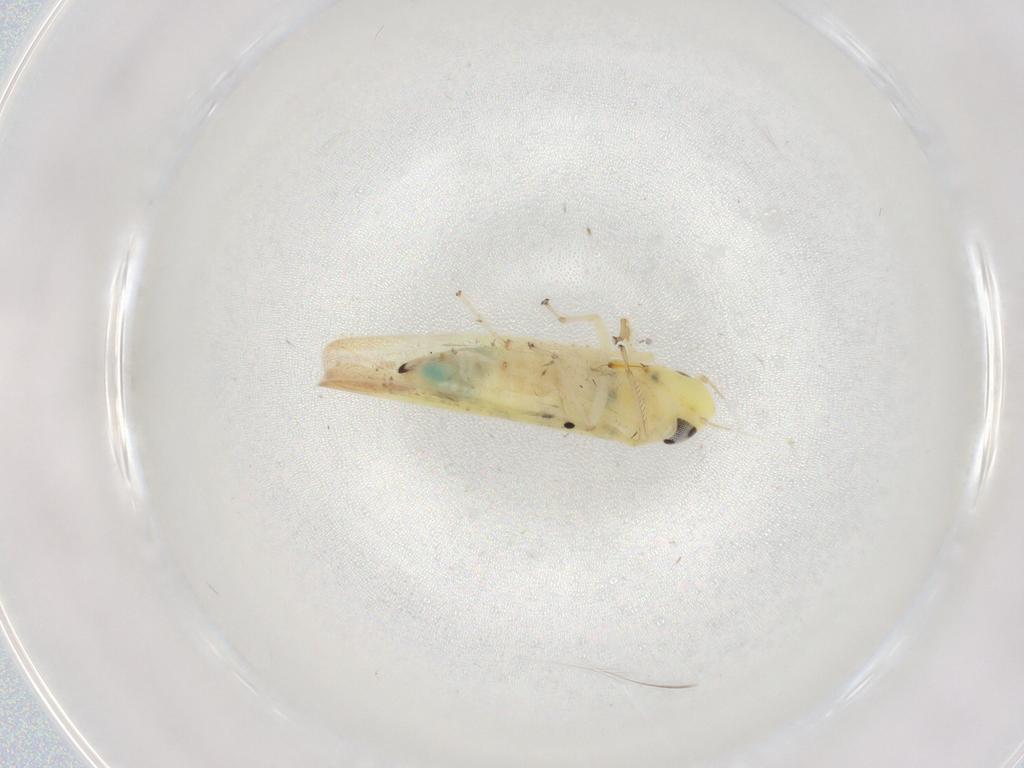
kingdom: Animalia
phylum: Arthropoda
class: Insecta
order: Hemiptera
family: Cicadellidae
